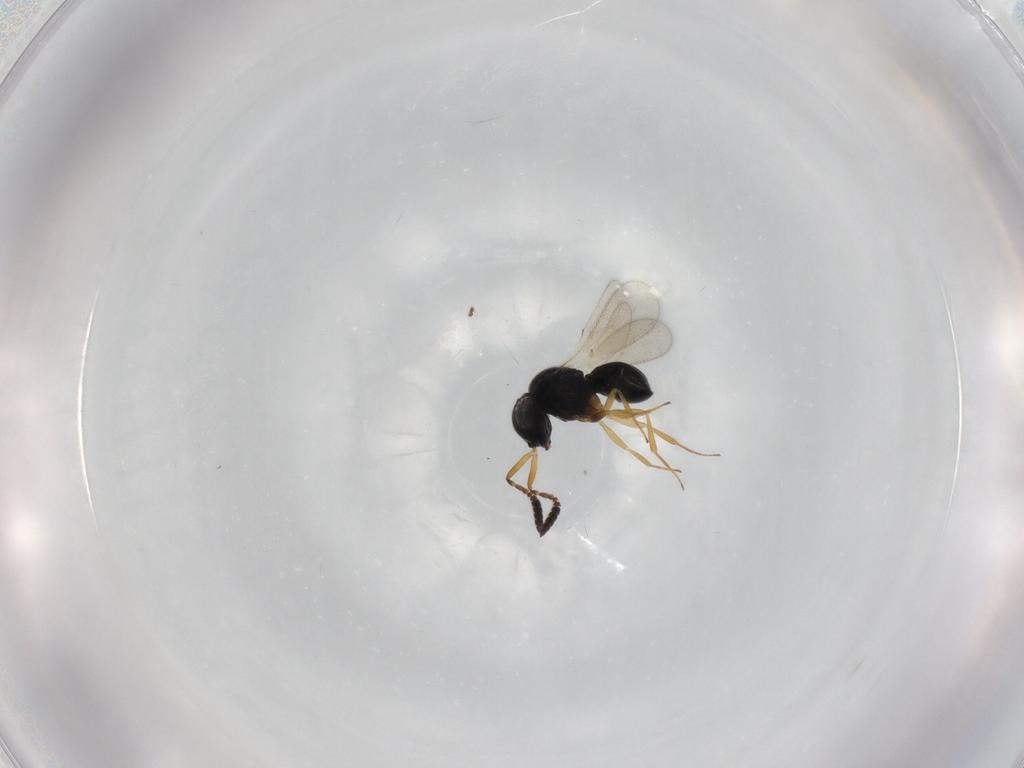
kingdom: Animalia
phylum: Arthropoda
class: Insecta
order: Hymenoptera
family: Scelionidae
